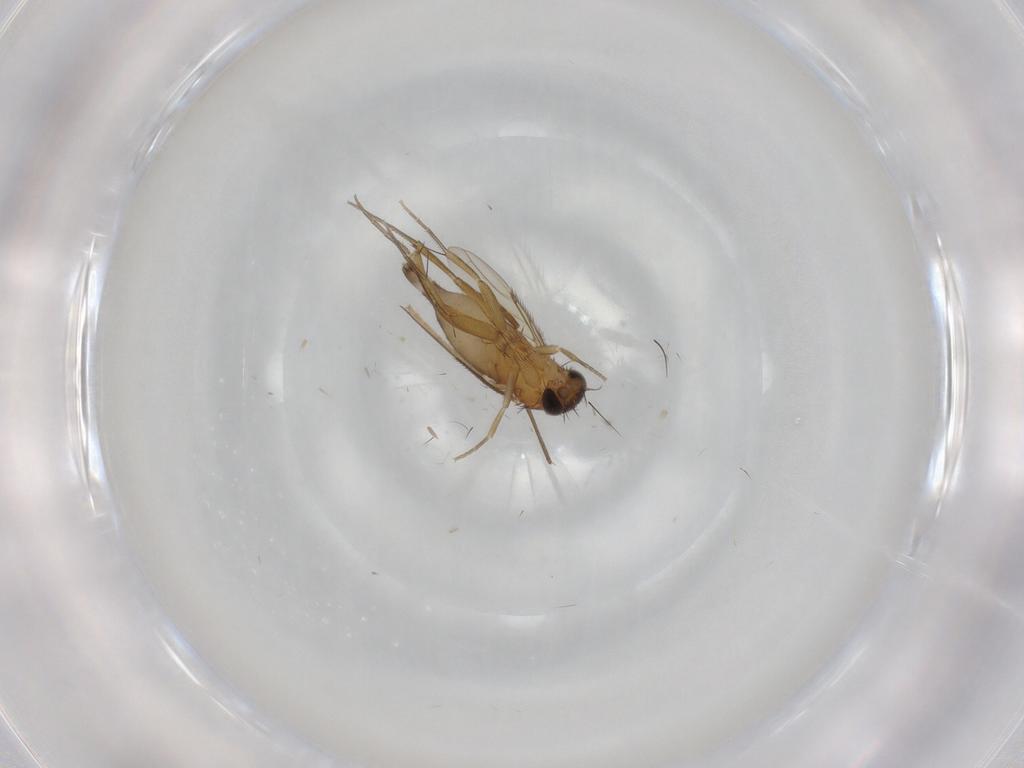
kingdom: Animalia
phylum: Arthropoda
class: Insecta
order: Diptera
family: Phoridae
